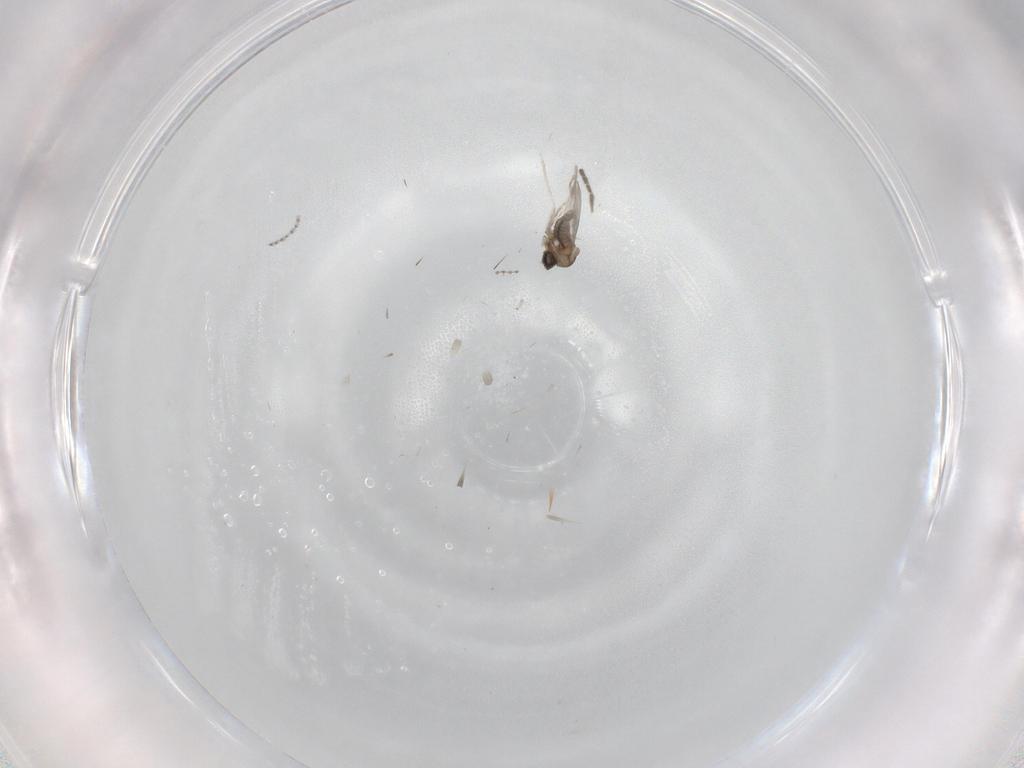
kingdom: Animalia
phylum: Arthropoda
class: Insecta
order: Diptera
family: Cecidomyiidae
